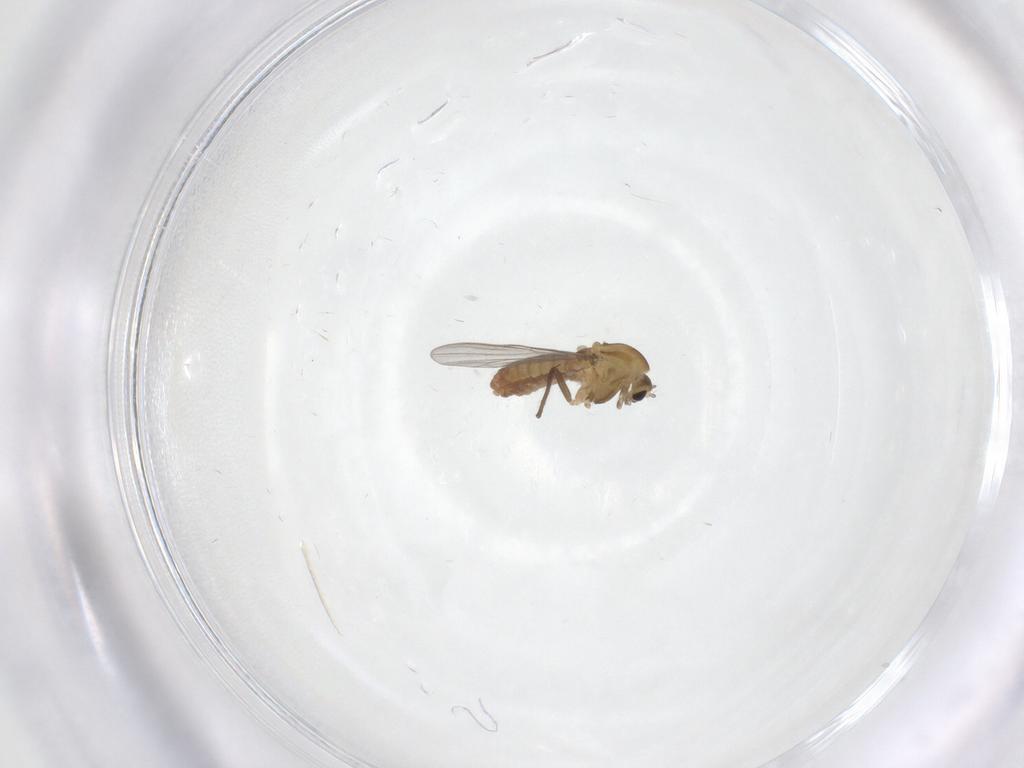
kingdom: Animalia
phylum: Arthropoda
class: Insecta
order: Diptera
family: Chironomidae
